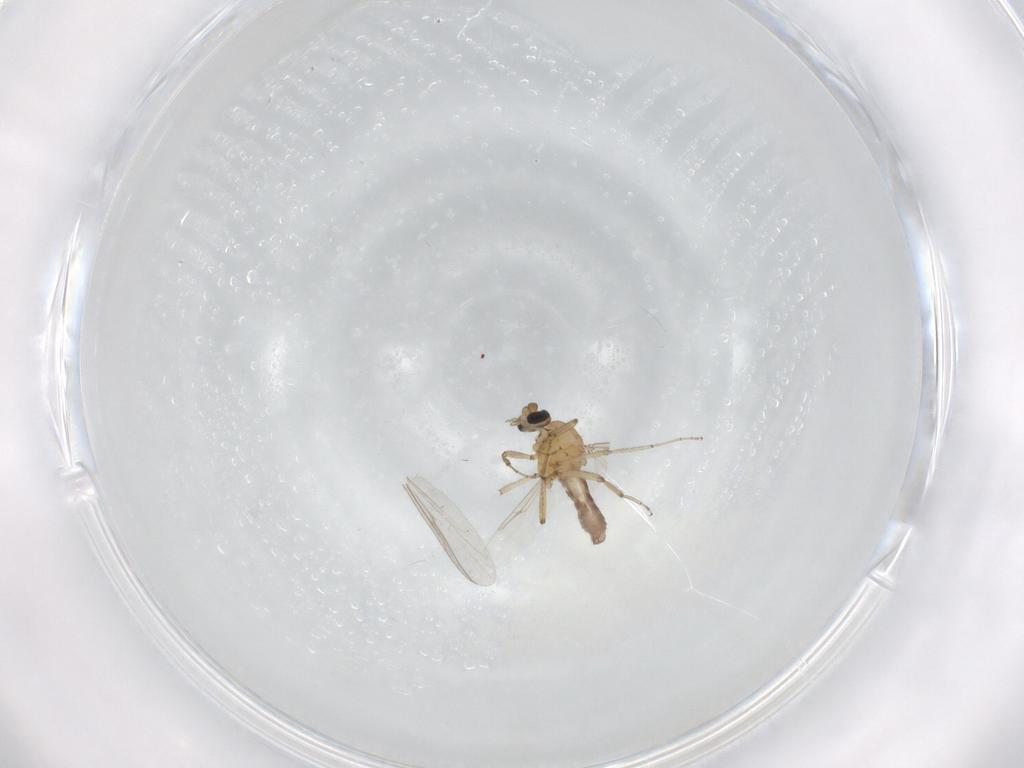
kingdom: Animalia
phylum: Arthropoda
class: Insecta
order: Diptera
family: Ceratopogonidae
